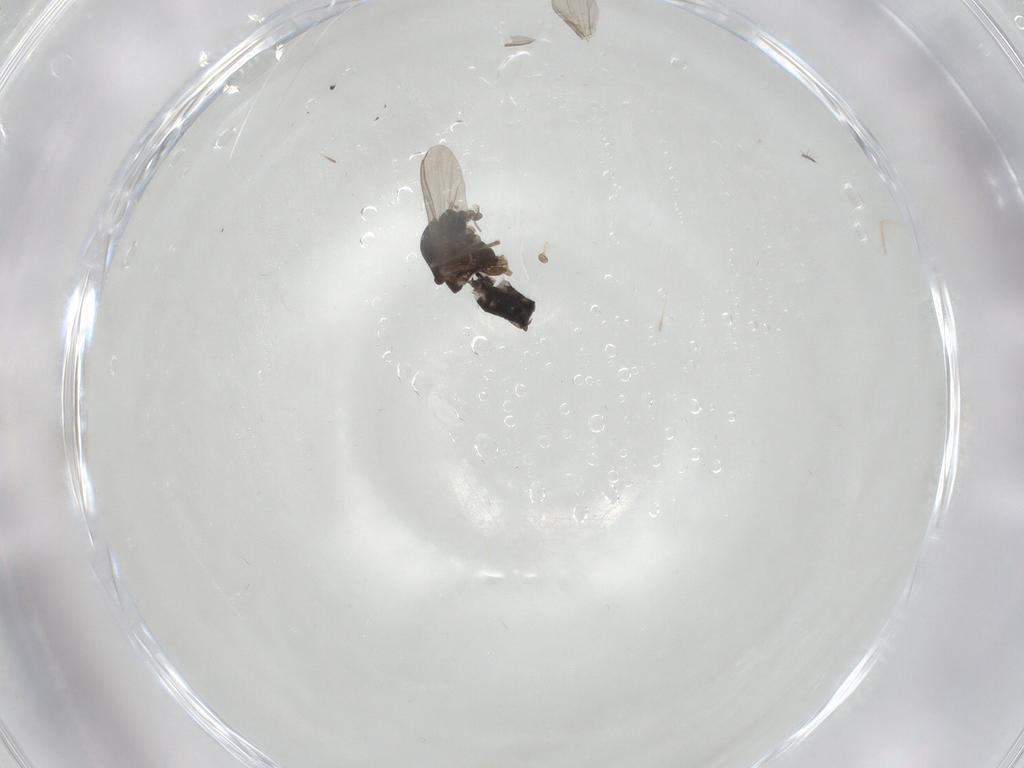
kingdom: Animalia
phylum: Arthropoda
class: Insecta
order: Diptera
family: Chironomidae
